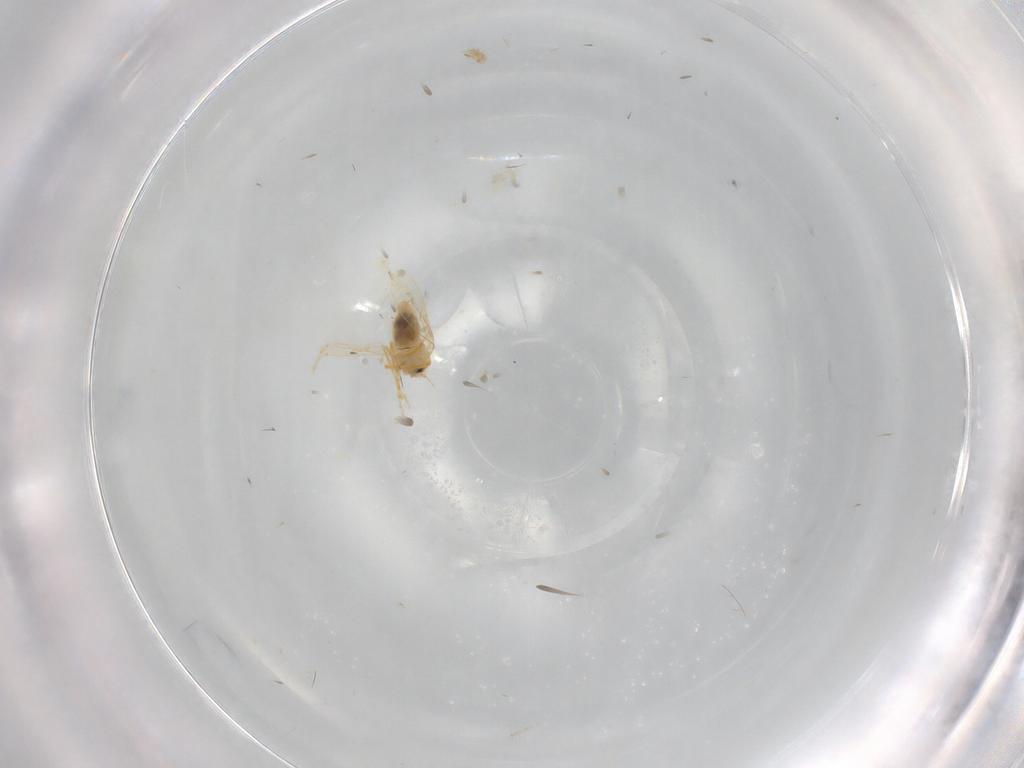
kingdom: Animalia
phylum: Arthropoda
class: Insecta
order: Hemiptera
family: Aleyrodidae
